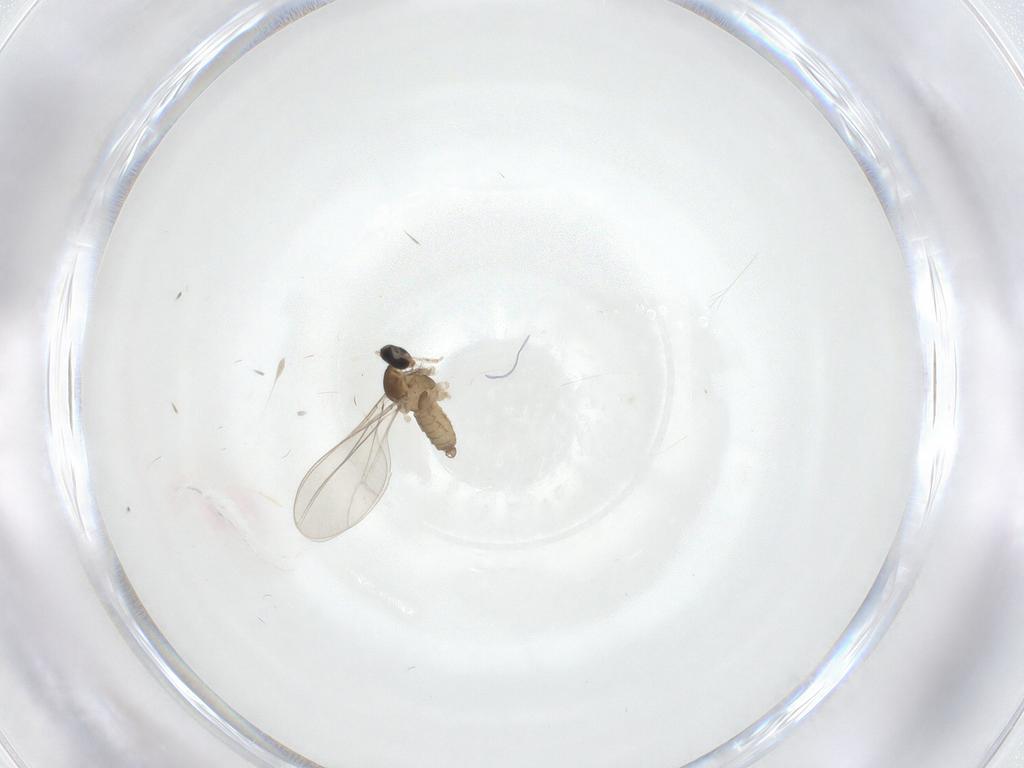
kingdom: Animalia
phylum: Arthropoda
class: Insecta
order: Diptera
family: Cecidomyiidae
